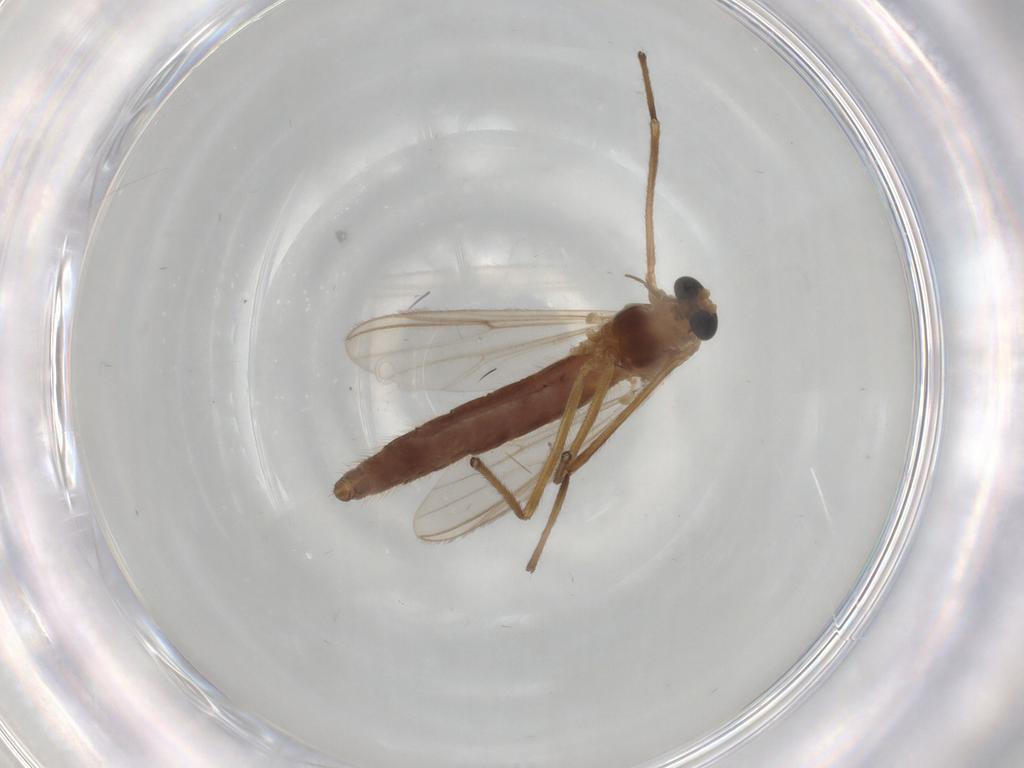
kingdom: Animalia
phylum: Arthropoda
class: Insecta
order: Diptera
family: Chironomidae
